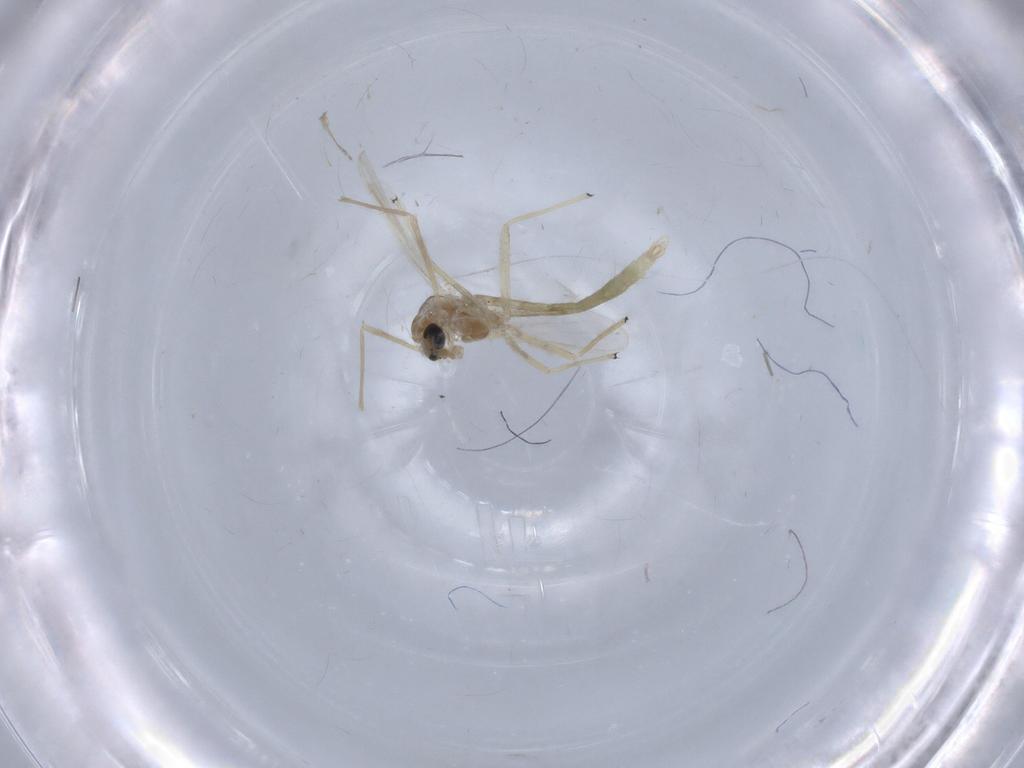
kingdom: Animalia
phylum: Arthropoda
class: Insecta
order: Diptera
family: Chironomidae
